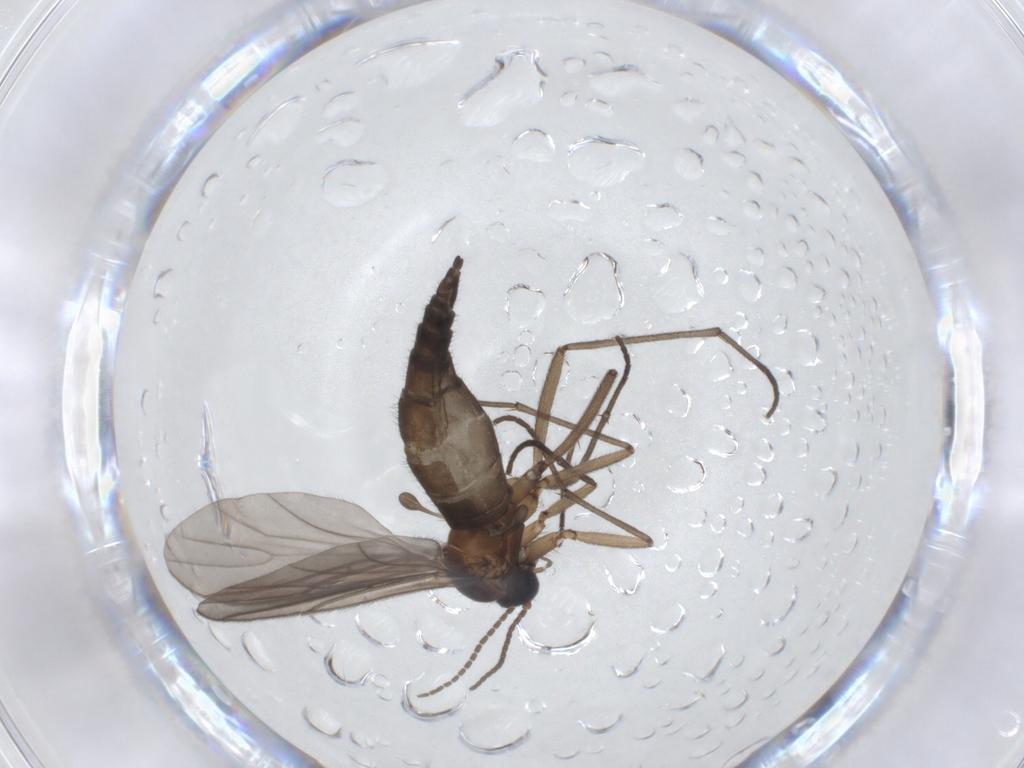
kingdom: Animalia
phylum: Arthropoda
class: Insecta
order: Diptera
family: Sciaridae
